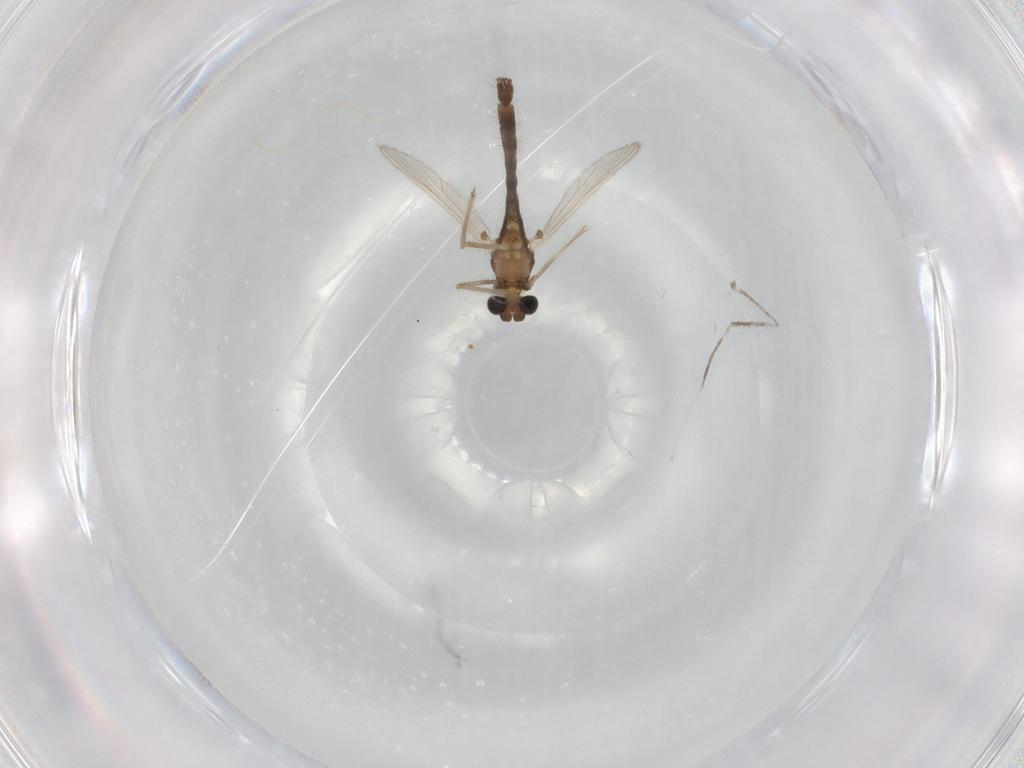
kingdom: Animalia
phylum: Arthropoda
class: Insecta
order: Diptera
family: Chironomidae
